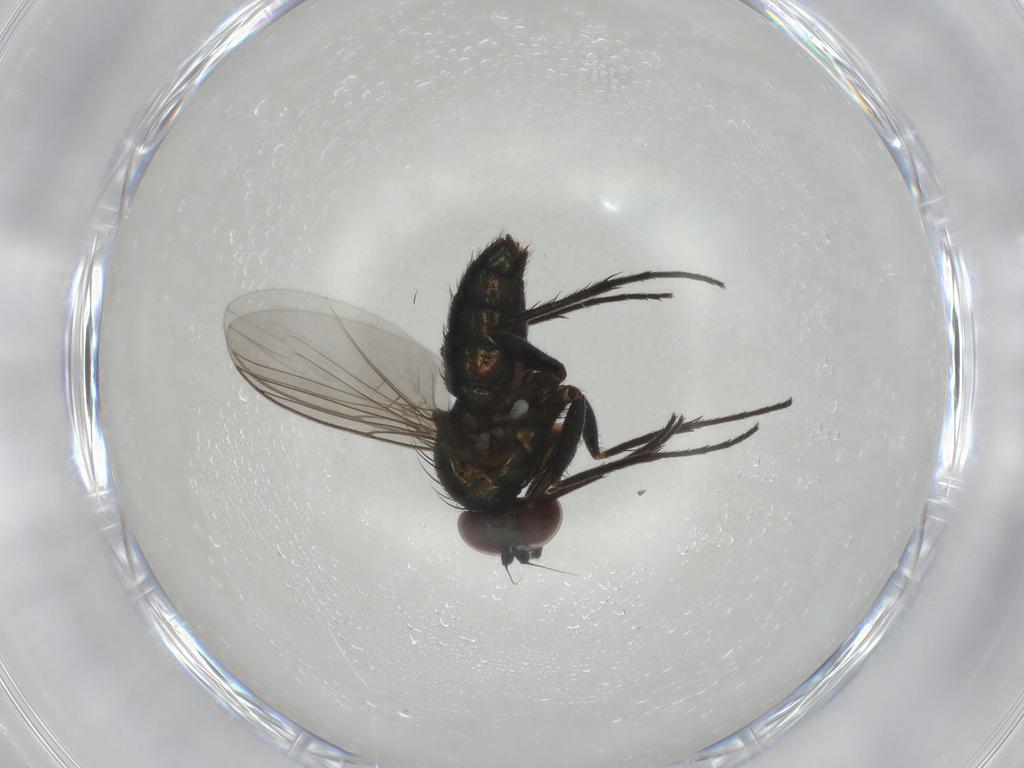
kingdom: Animalia
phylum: Arthropoda
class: Insecta
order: Diptera
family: Dolichopodidae
